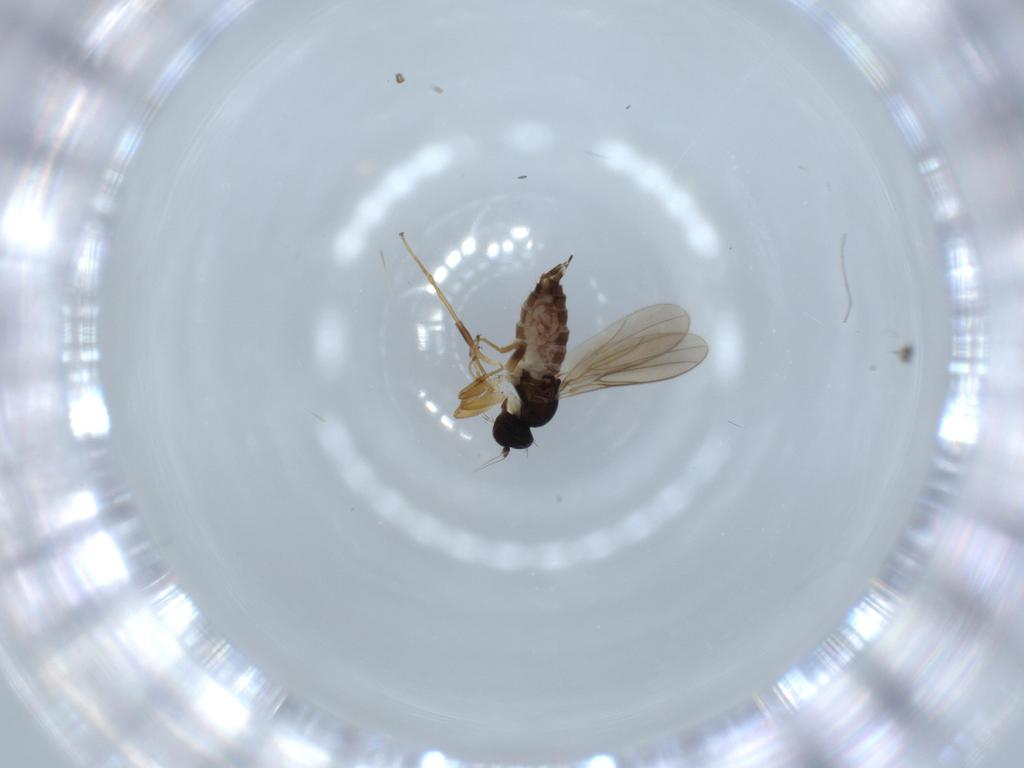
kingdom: Animalia
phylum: Arthropoda
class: Insecta
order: Diptera
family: Hybotidae
